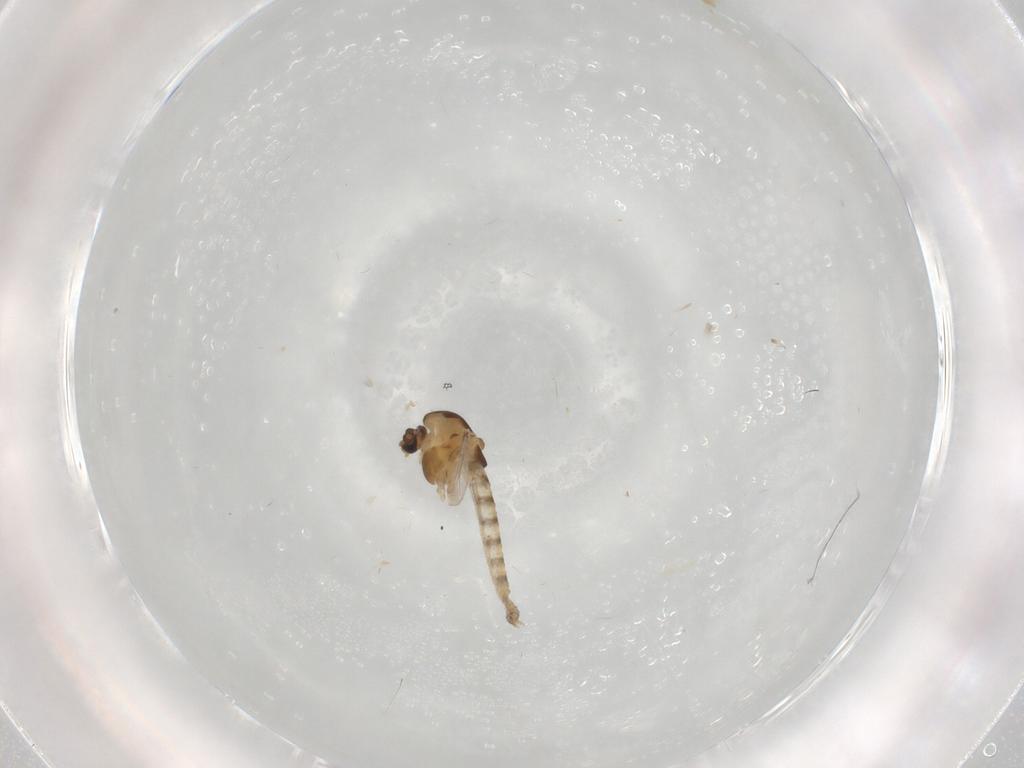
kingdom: Animalia
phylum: Arthropoda
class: Insecta
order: Diptera
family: Chironomidae
